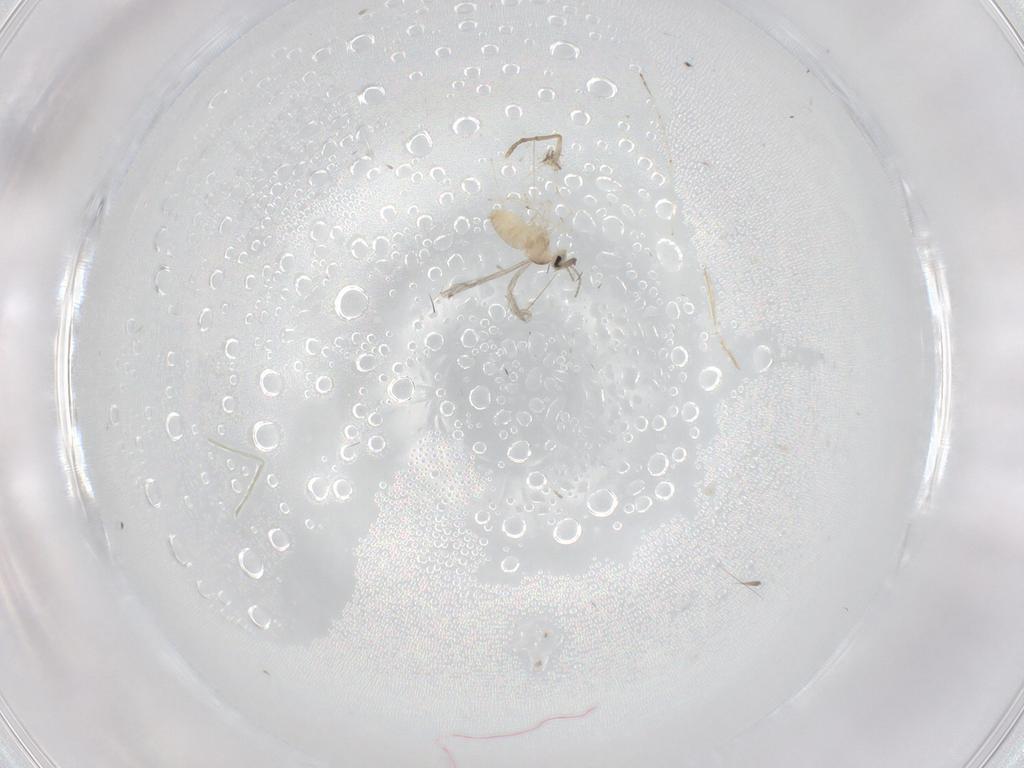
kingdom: Animalia
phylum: Arthropoda
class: Insecta
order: Diptera
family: Cecidomyiidae
